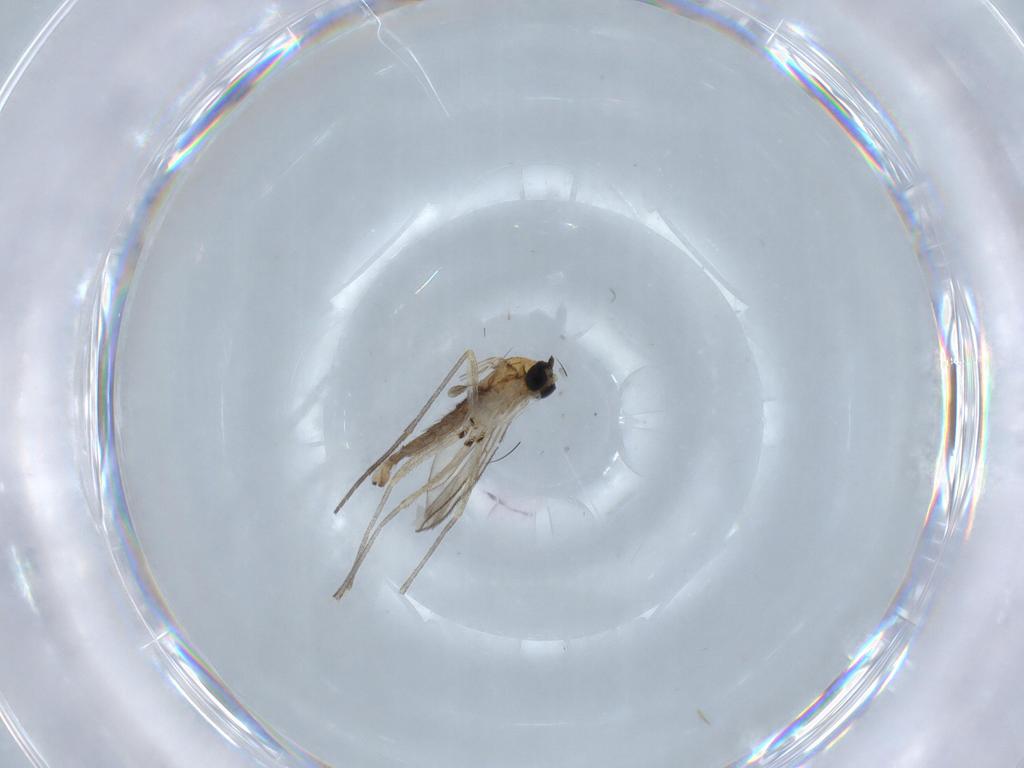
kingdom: Animalia
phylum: Arthropoda
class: Insecta
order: Diptera
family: Sciaridae
